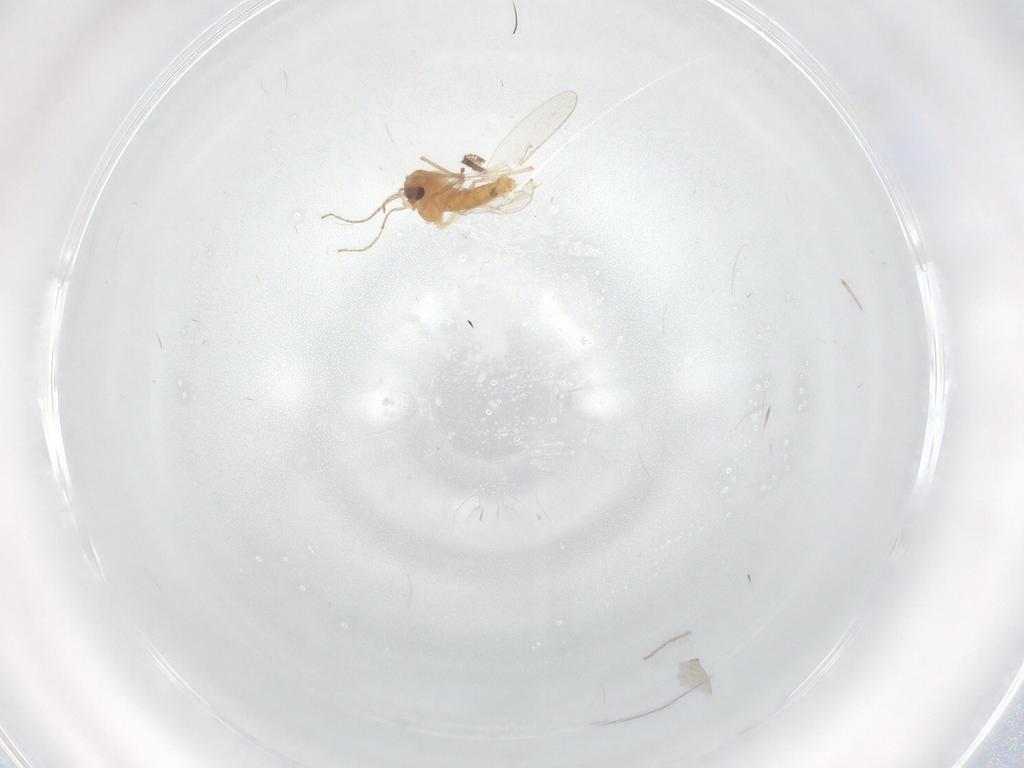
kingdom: Animalia
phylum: Arthropoda
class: Insecta
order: Diptera
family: Chironomidae
